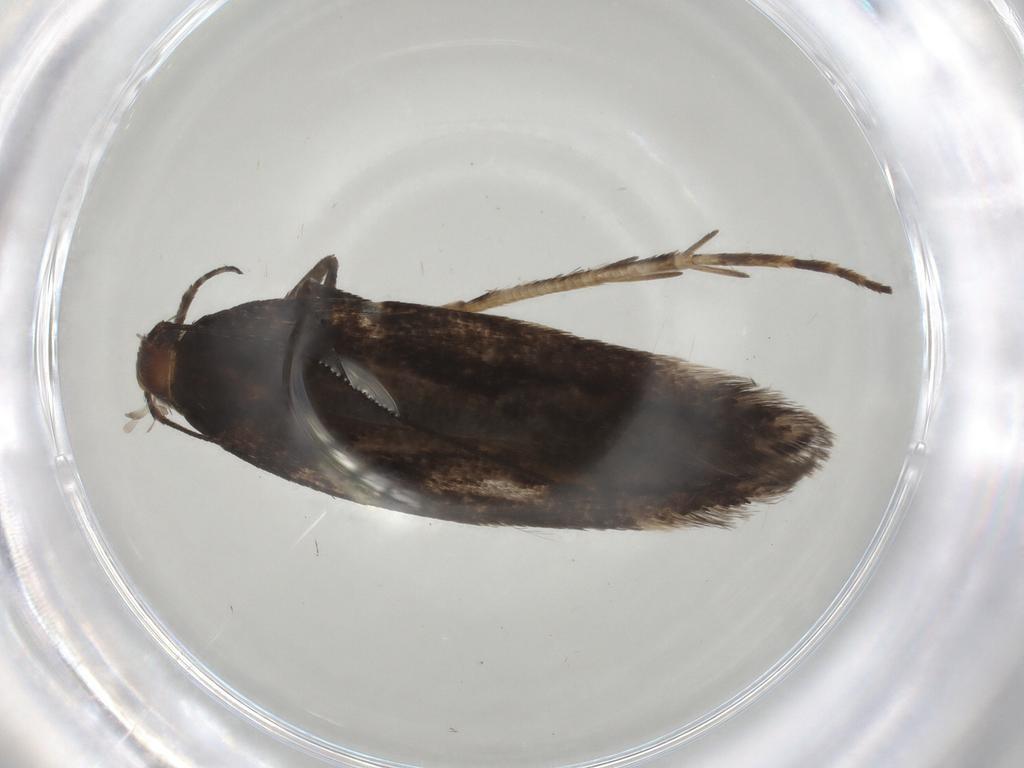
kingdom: Animalia
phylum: Arthropoda
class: Insecta
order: Lepidoptera
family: Gelechiidae
